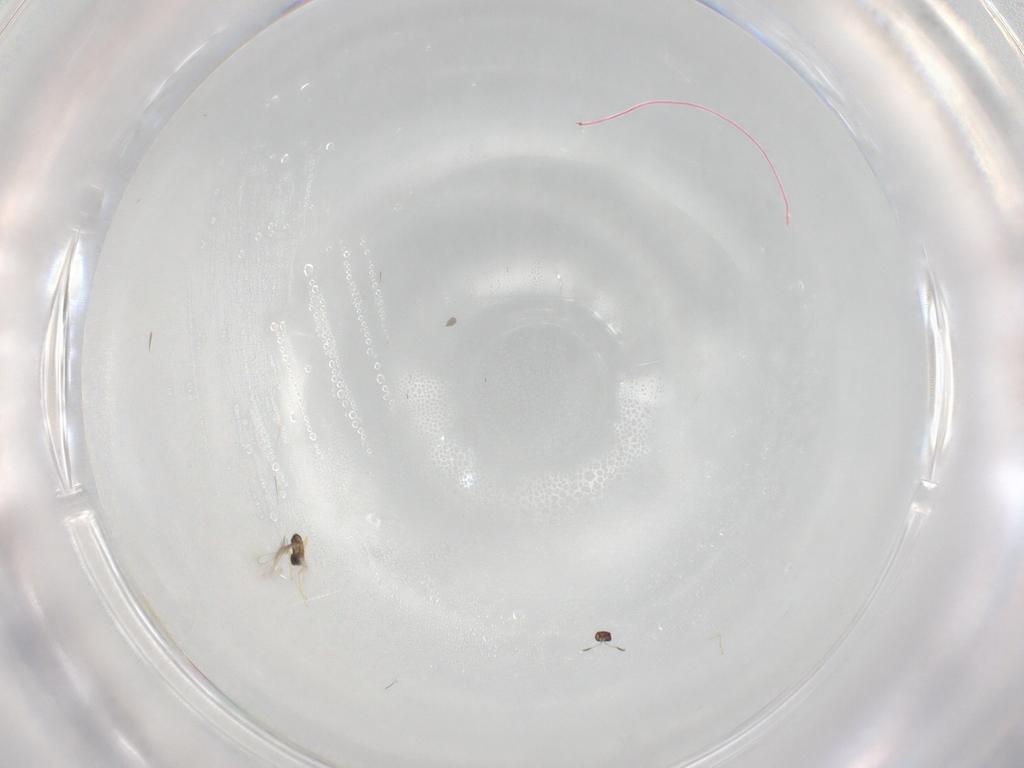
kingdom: Animalia
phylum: Arthropoda
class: Insecta
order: Hymenoptera
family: Mymaridae
